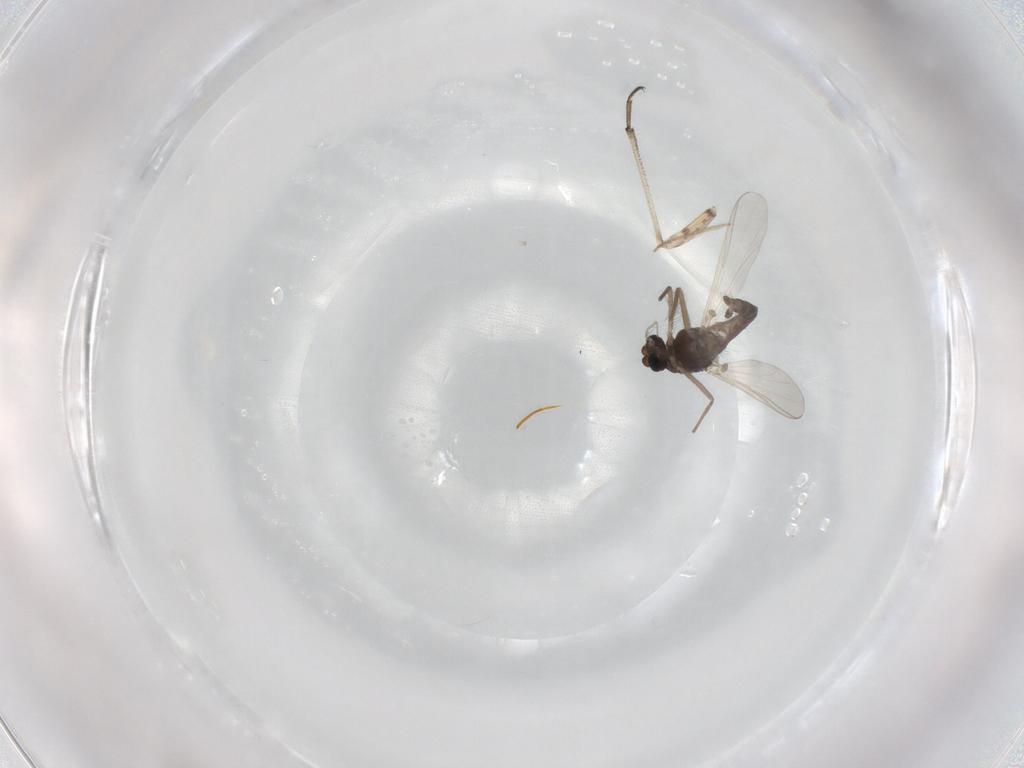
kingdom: Animalia
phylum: Arthropoda
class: Insecta
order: Diptera
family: Chironomidae
